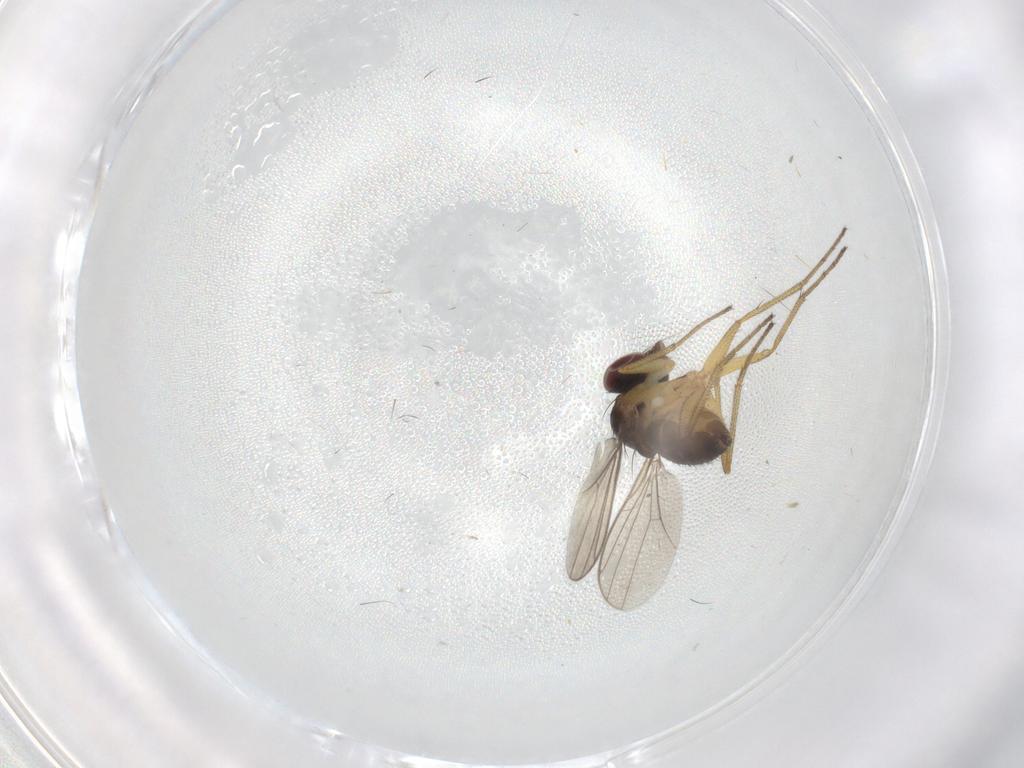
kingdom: Animalia
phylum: Arthropoda
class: Insecta
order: Diptera
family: Dolichopodidae
